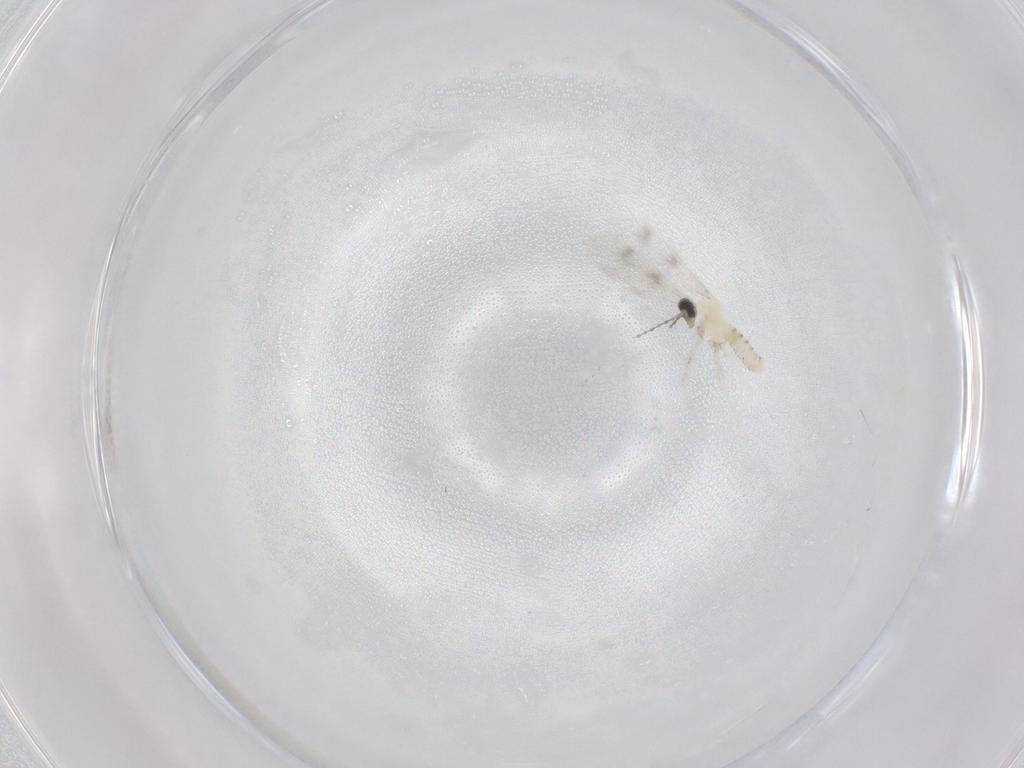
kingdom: Animalia
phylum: Arthropoda
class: Insecta
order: Diptera
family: Cecidomyiidae
